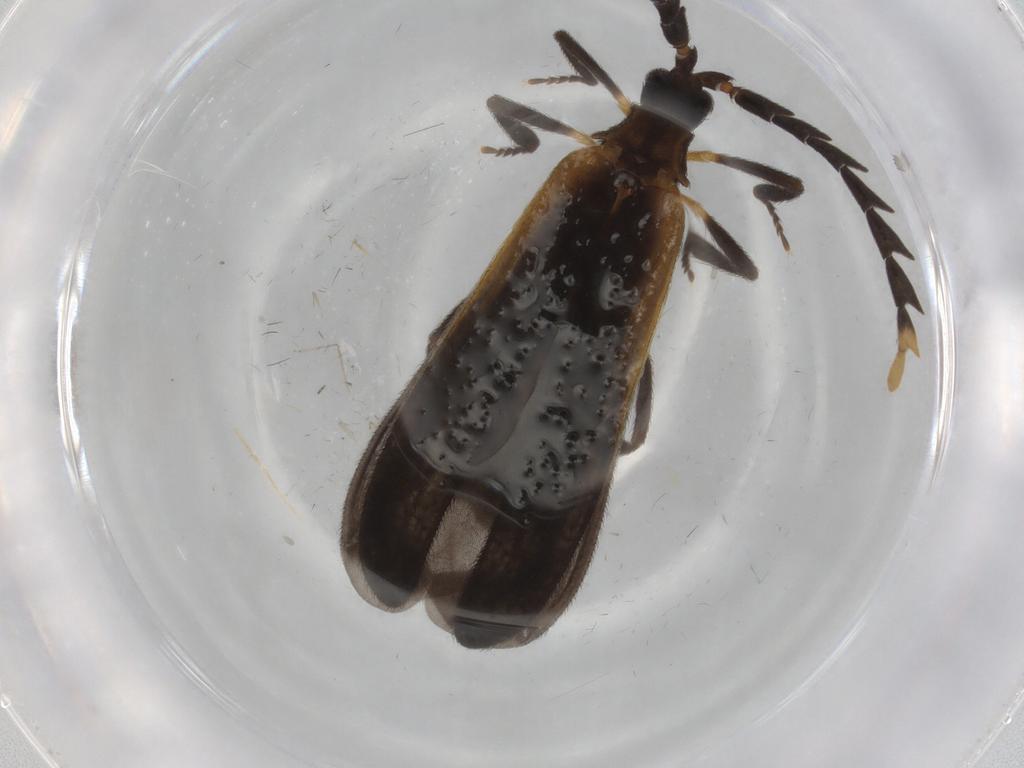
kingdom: Animalia
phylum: Arthropoda
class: Insecta
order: Coleoptera
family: Lycidae
